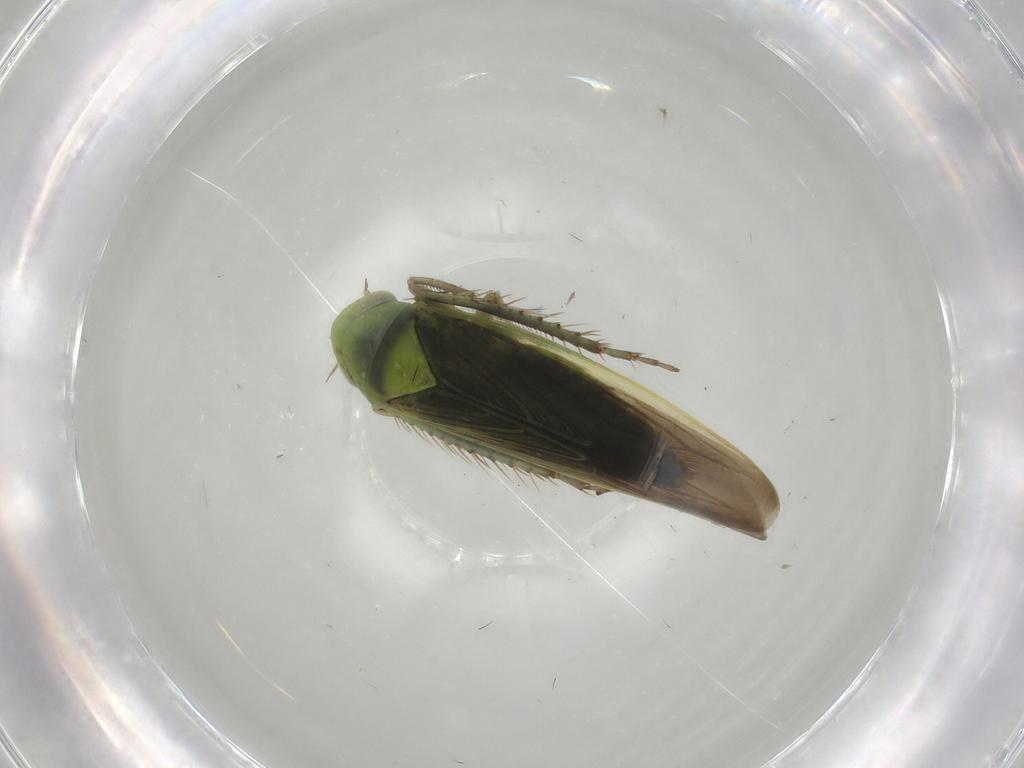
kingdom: Animalia
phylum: Arthropoda
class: Insecta
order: Hemiptera
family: Cicadellidae
